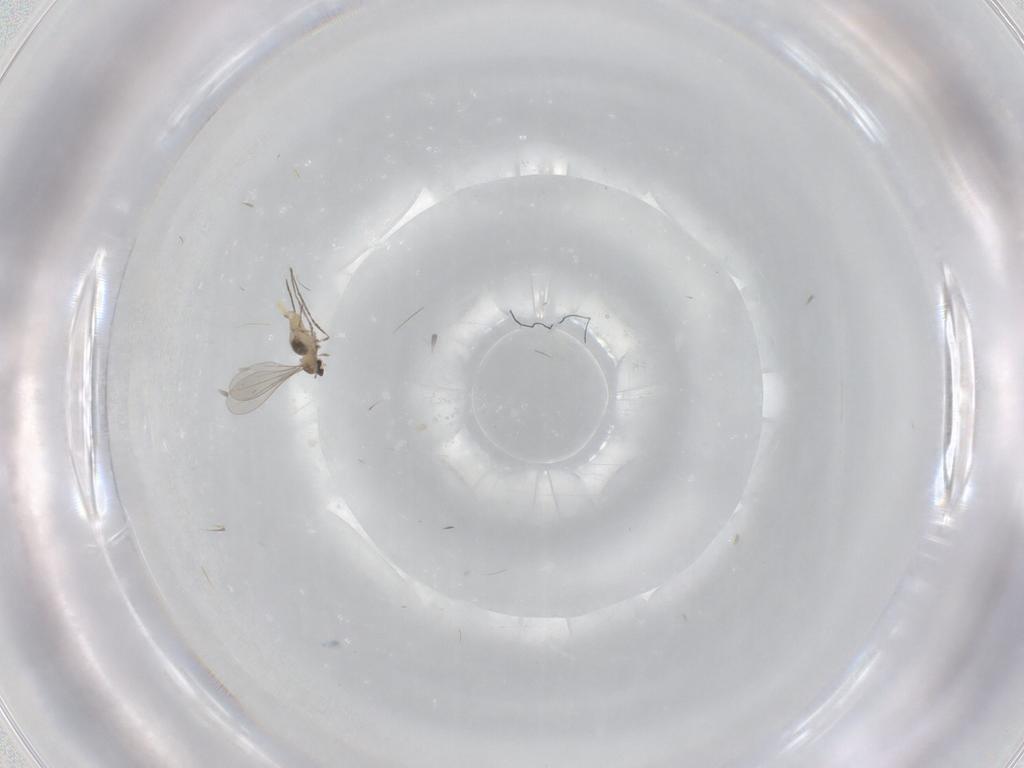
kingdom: Animalia
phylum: Arthropoda
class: Insecta
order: Diptera
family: Cecidomyiidae
